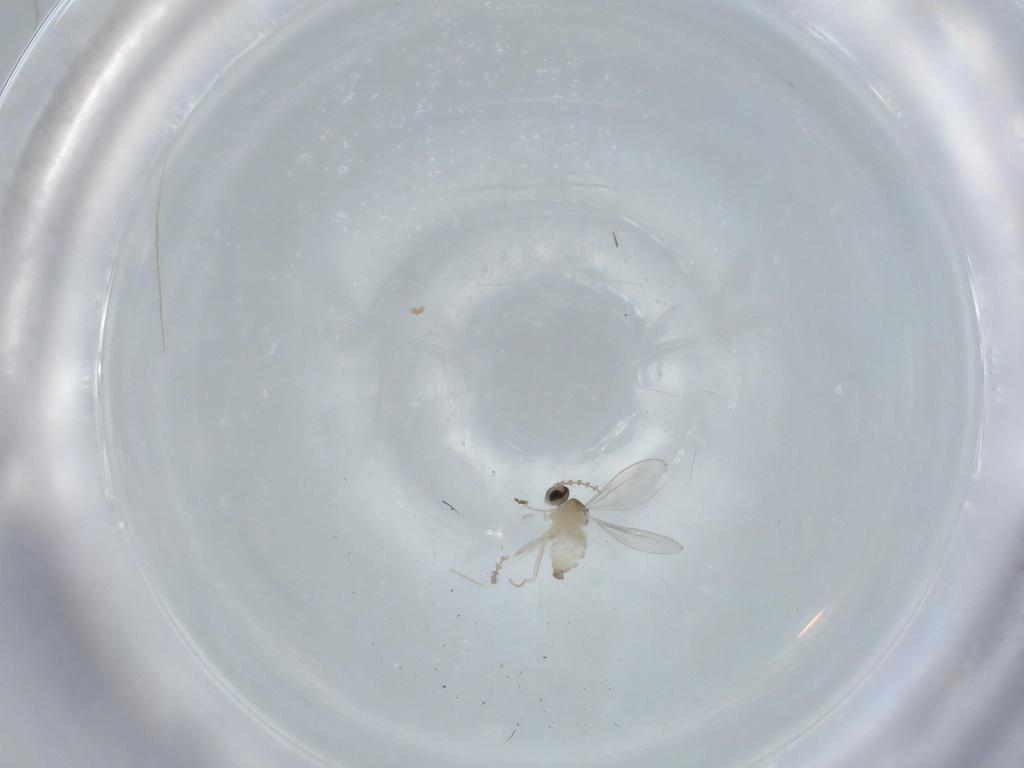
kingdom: Animalia
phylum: Arthropoda
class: Insecta
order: Diptera
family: Cecidomyiidae
